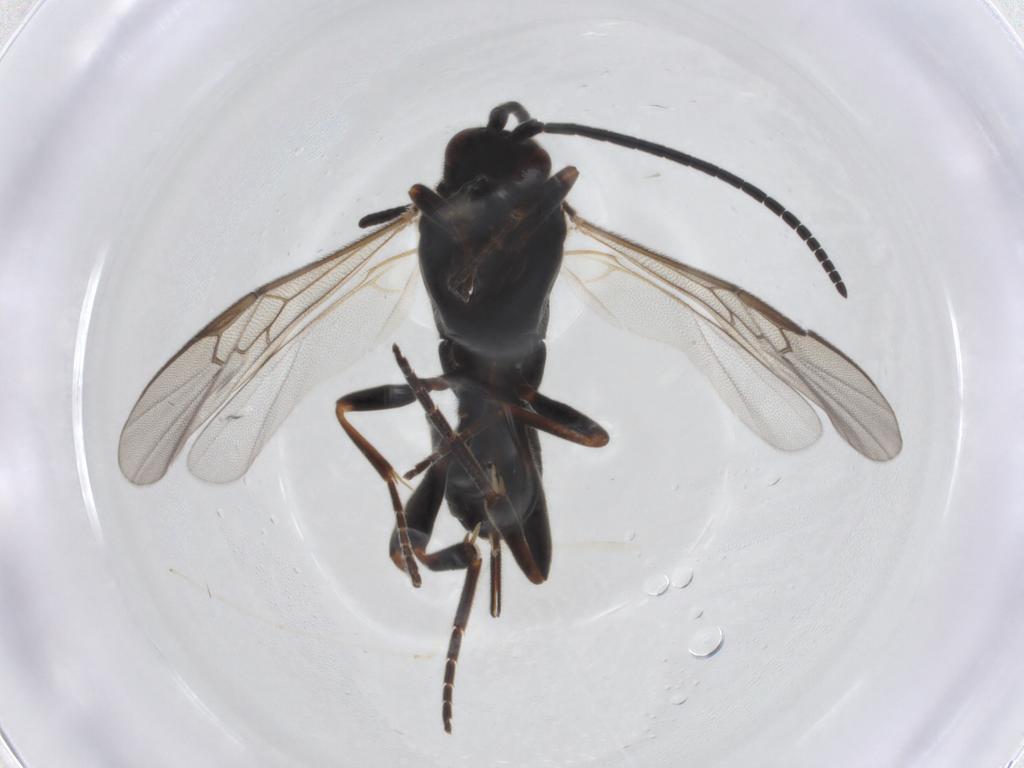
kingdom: Animalia
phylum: Arthropoda
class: Insecta
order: Hymenoptera
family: Braconidae
